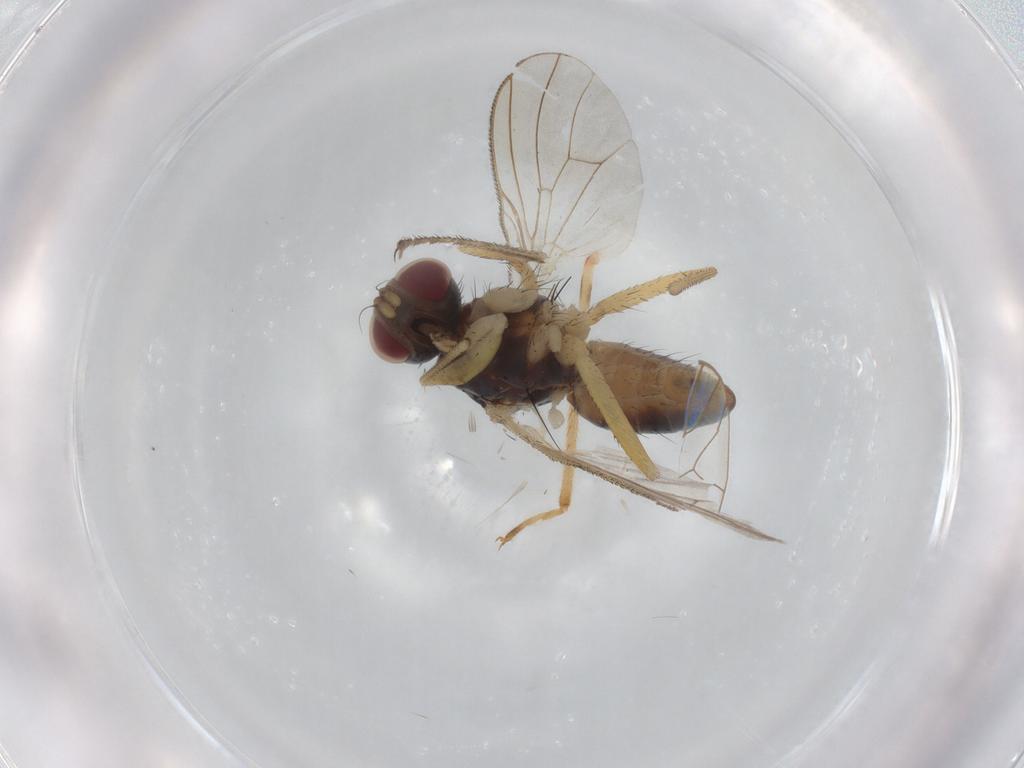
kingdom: Animalia
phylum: Arthropoda
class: Insecta
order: Diptera
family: Muscidae
